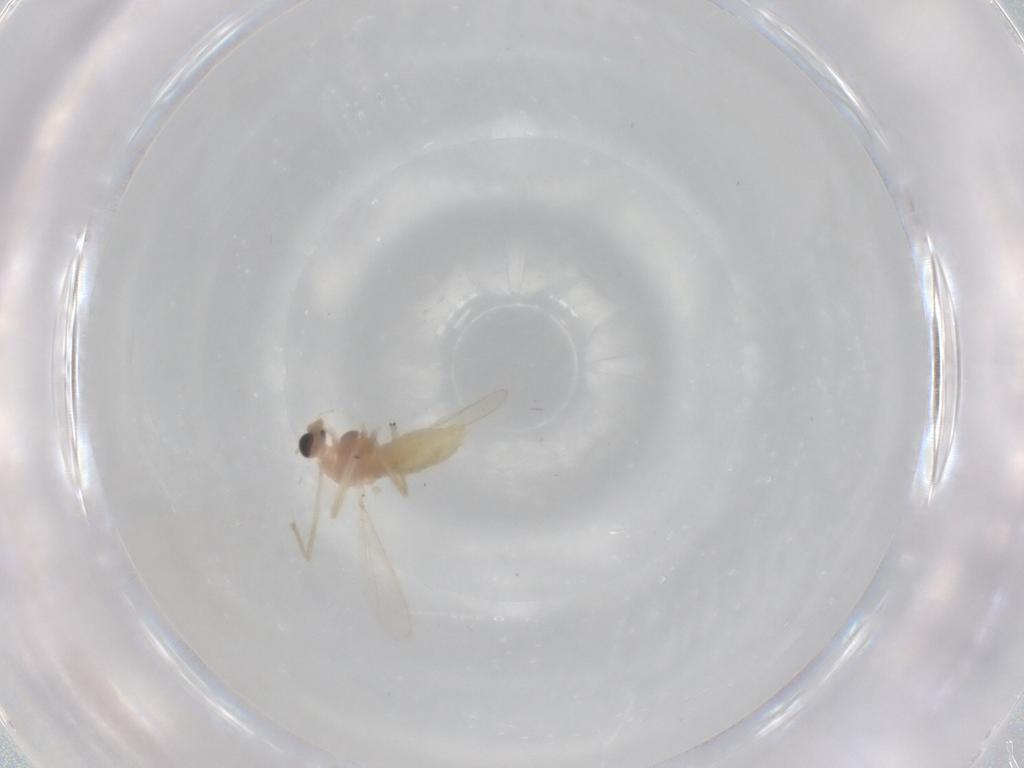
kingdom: Animalia
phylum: Arthropoda
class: Insecta
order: Diptera
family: Chironomidae
